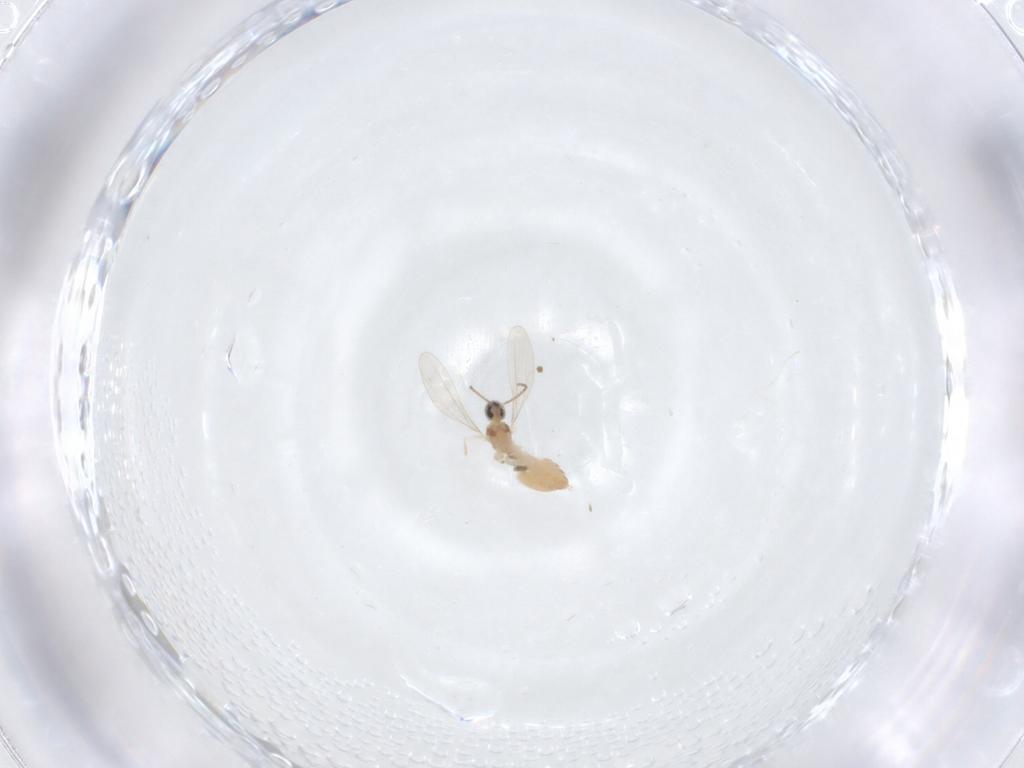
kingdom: Animalia
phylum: Arthropoda
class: Insecta
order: Diptera
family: Cecidomyiidae
